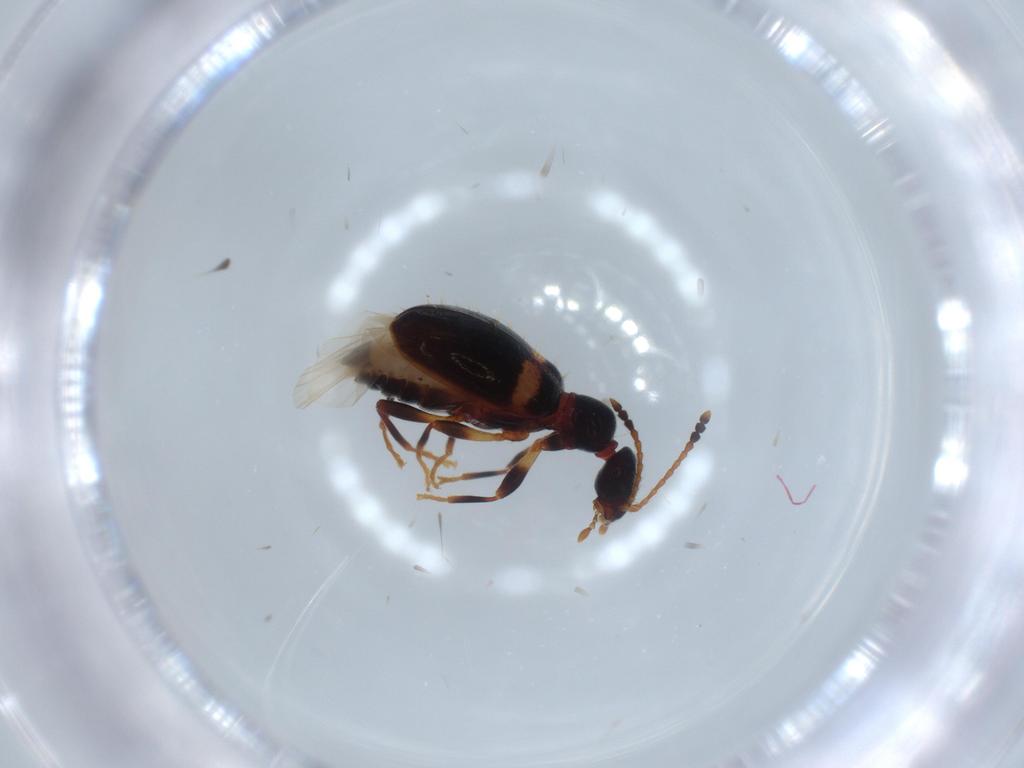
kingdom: Animalia
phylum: Arthropoda
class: Insecta
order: Coleoptera
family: Anthicidae
